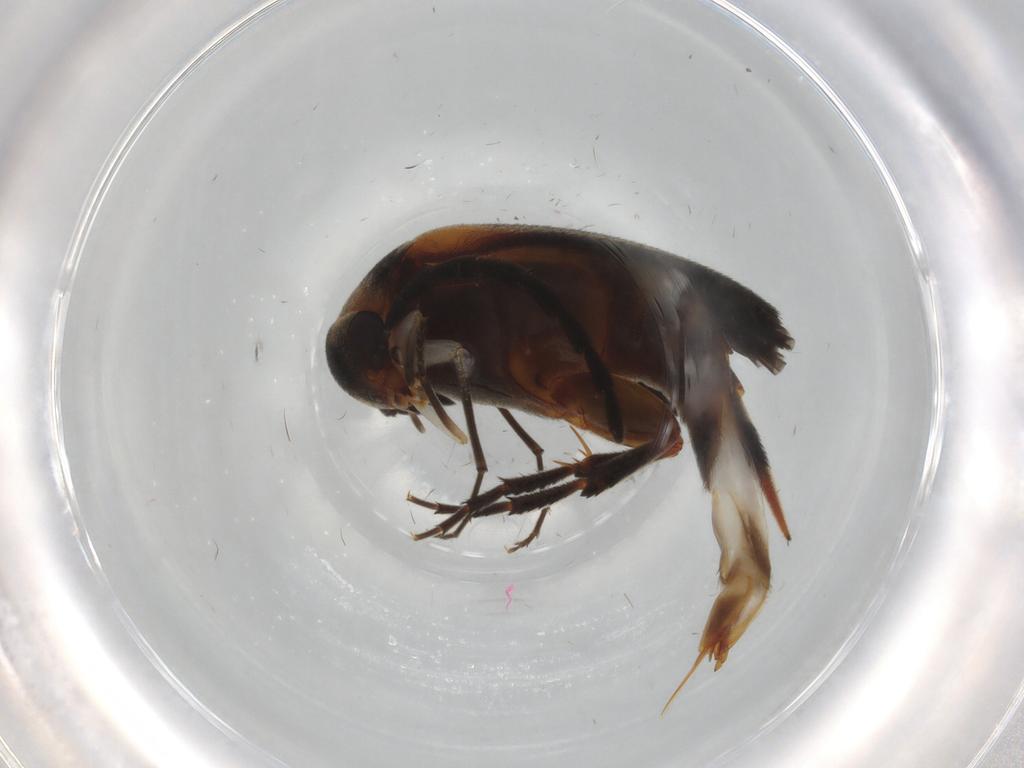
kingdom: Animalia
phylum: Arthropoda
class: Insecta
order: Coleoptera
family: Mordellidae
